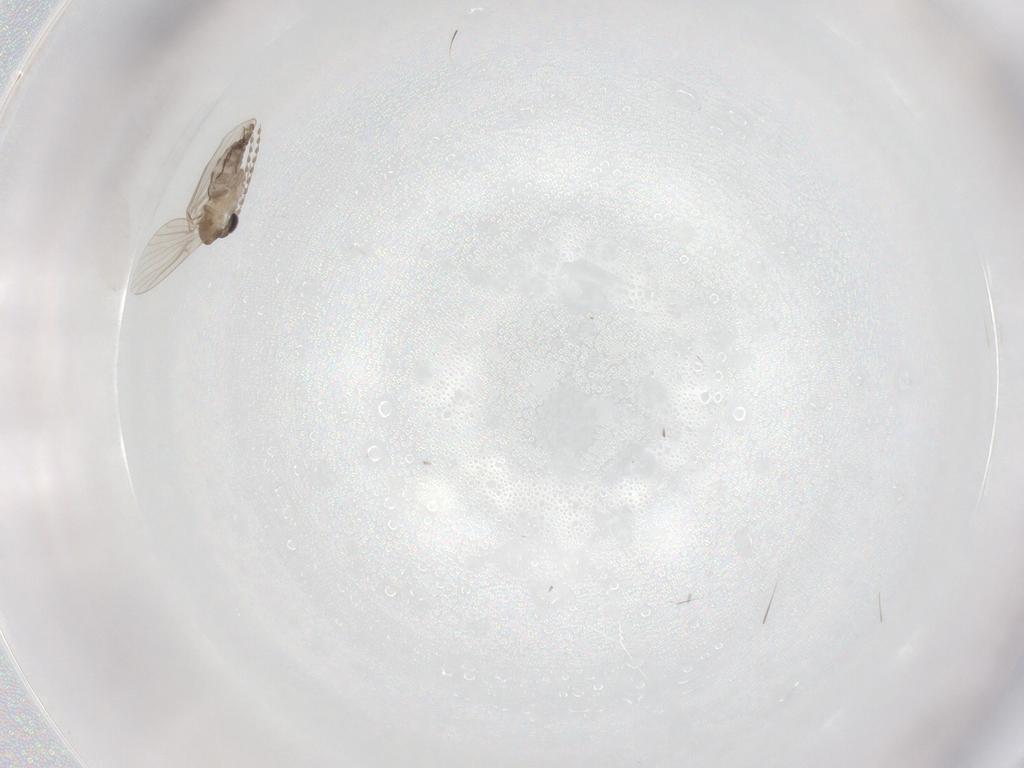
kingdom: Animalia
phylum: Arthropoda
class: Insecta
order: Diptera
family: Anthomyzidae
